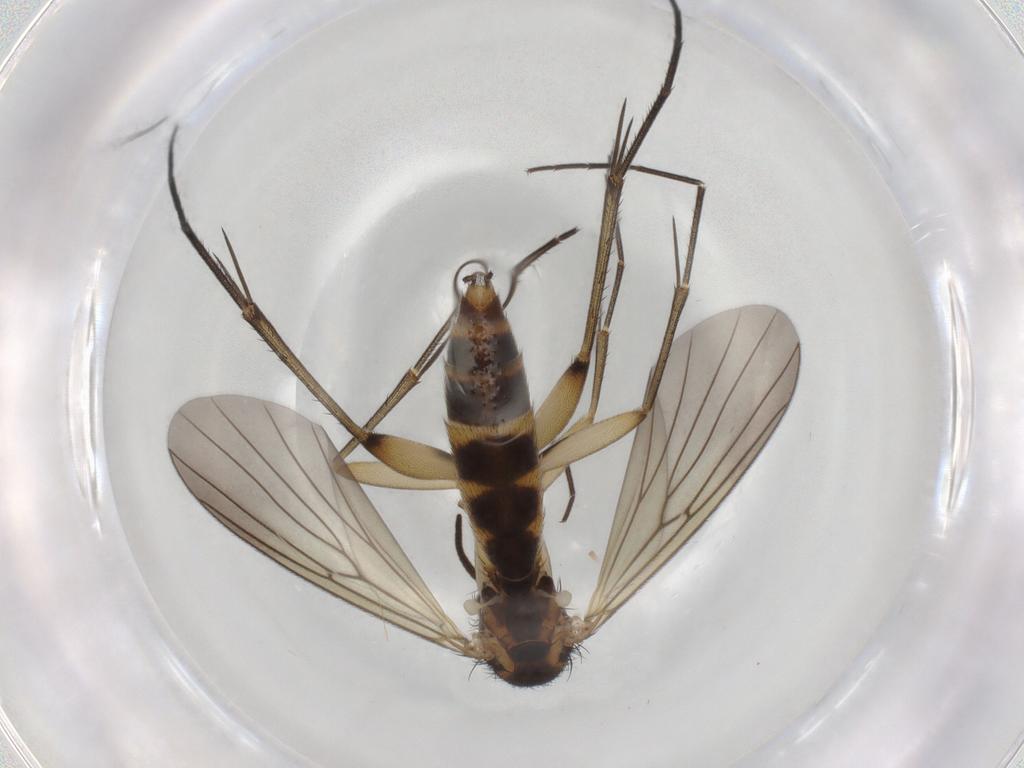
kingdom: Animalia
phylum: Arthropoda
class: Insecta
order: Diptera
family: Mycetophilidae
